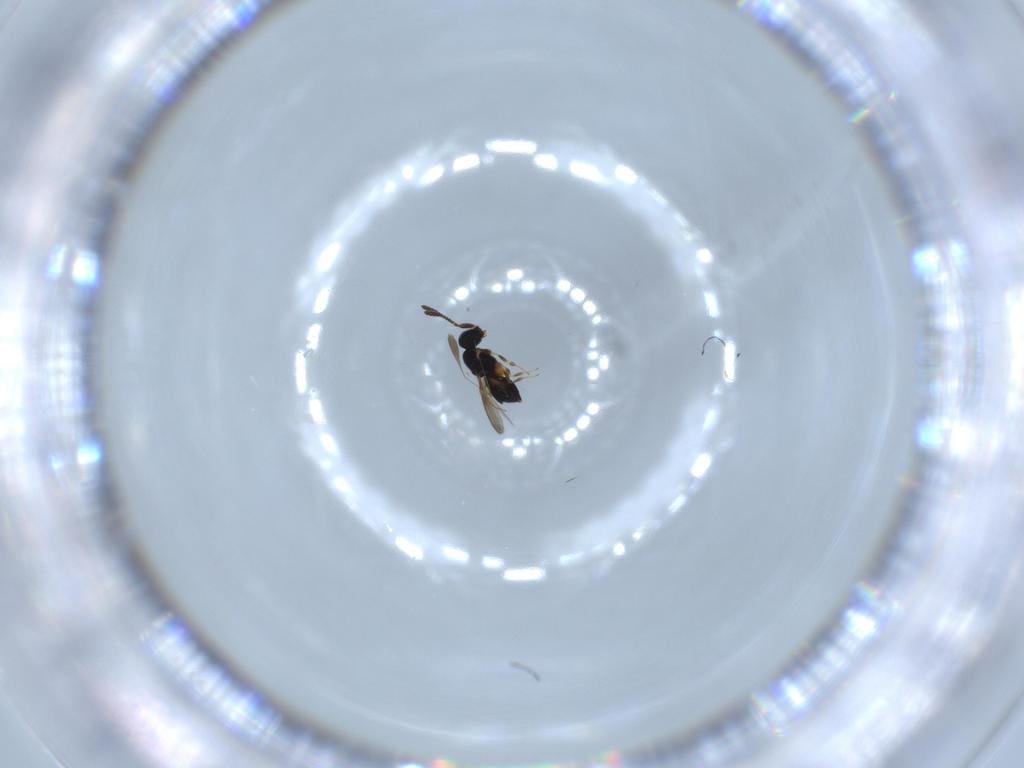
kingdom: Animalia
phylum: Arthropoda
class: Insecta
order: Hymenoptera
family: Scelionidae
